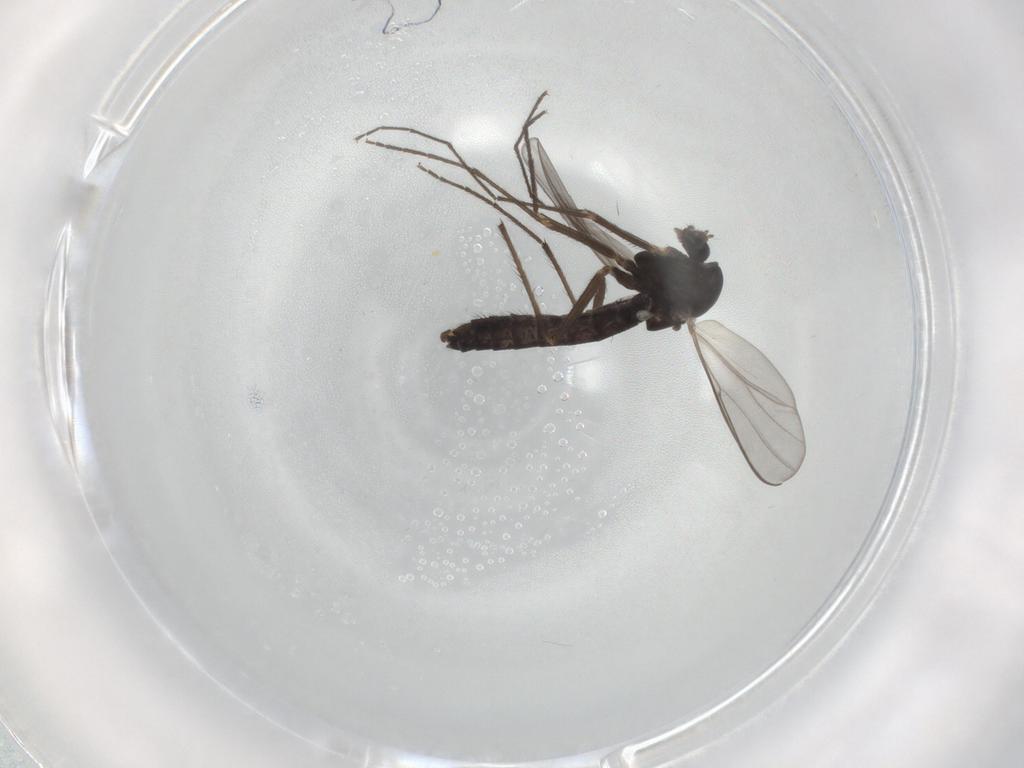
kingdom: Animalia
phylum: Arthropoda
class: Insecta
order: Diptera
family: Chironomidae
